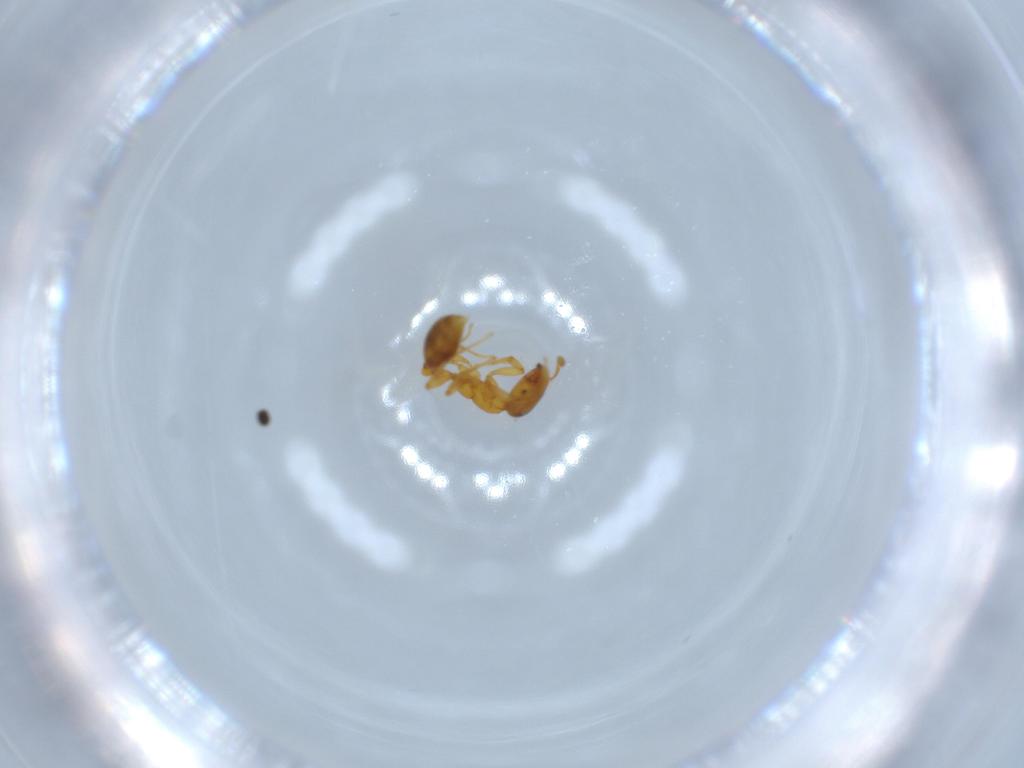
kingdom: Animalia
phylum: Arthropoda
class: Insecta
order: Hymenoptera
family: Formicidae
